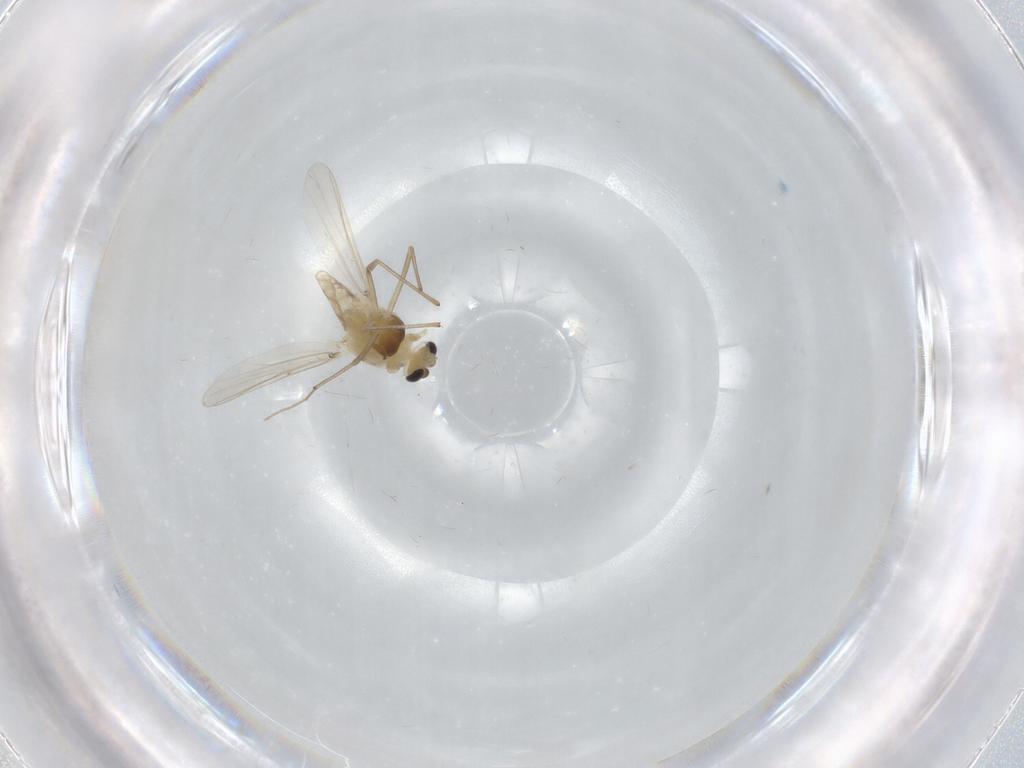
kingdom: Animalia
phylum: Arthropoda
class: Insecta
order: Diptera
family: Chironomidae
